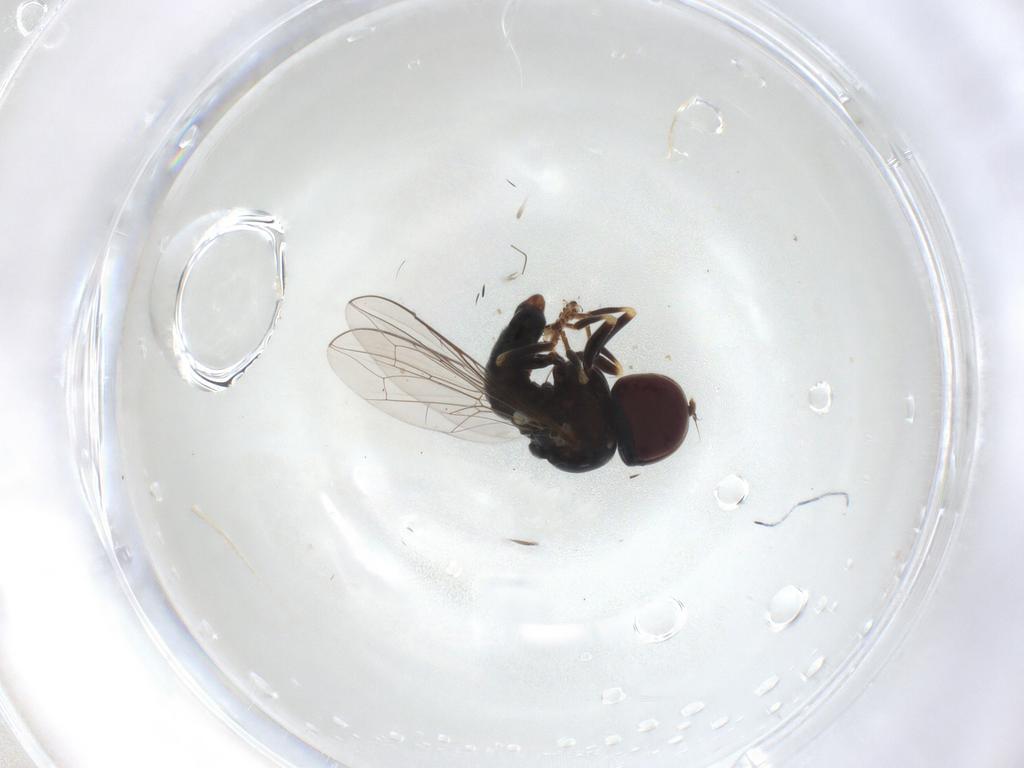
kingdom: Animalia
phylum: Arthropoda
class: Insecta
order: Diptera
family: Pipunculidae
